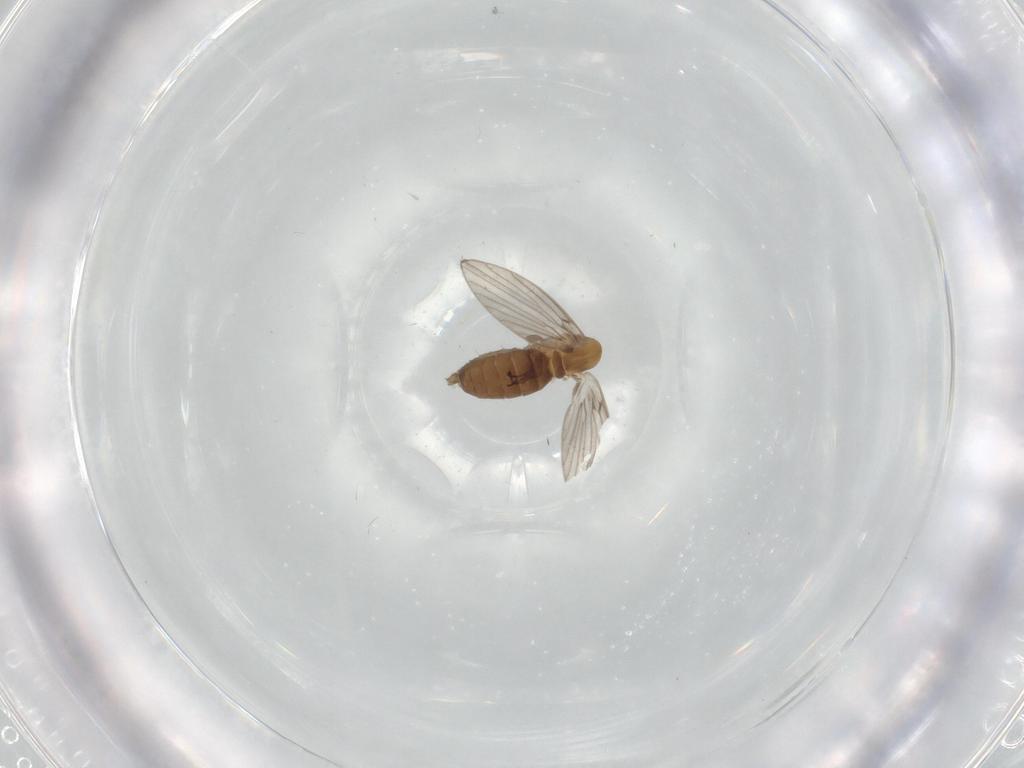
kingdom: Animalia
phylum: Arthropoda
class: Insecta
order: Diptera
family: Psychodidae
